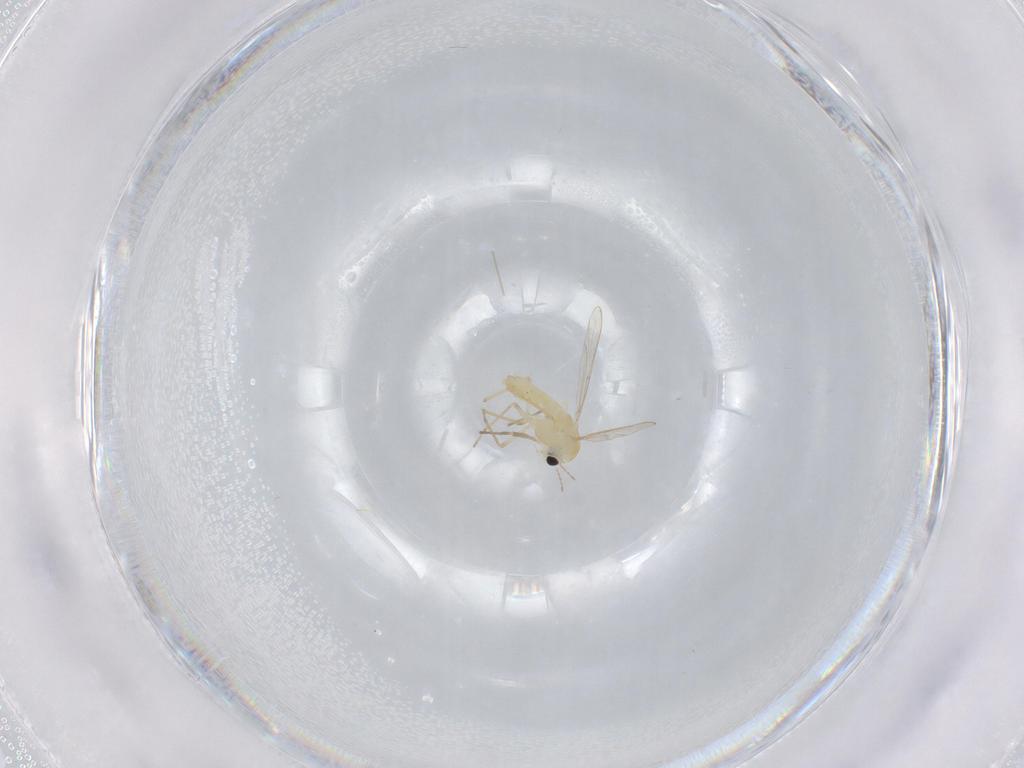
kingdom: Animalia
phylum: Arthropoda
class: Insecta
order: Diptera
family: Chironomidae
